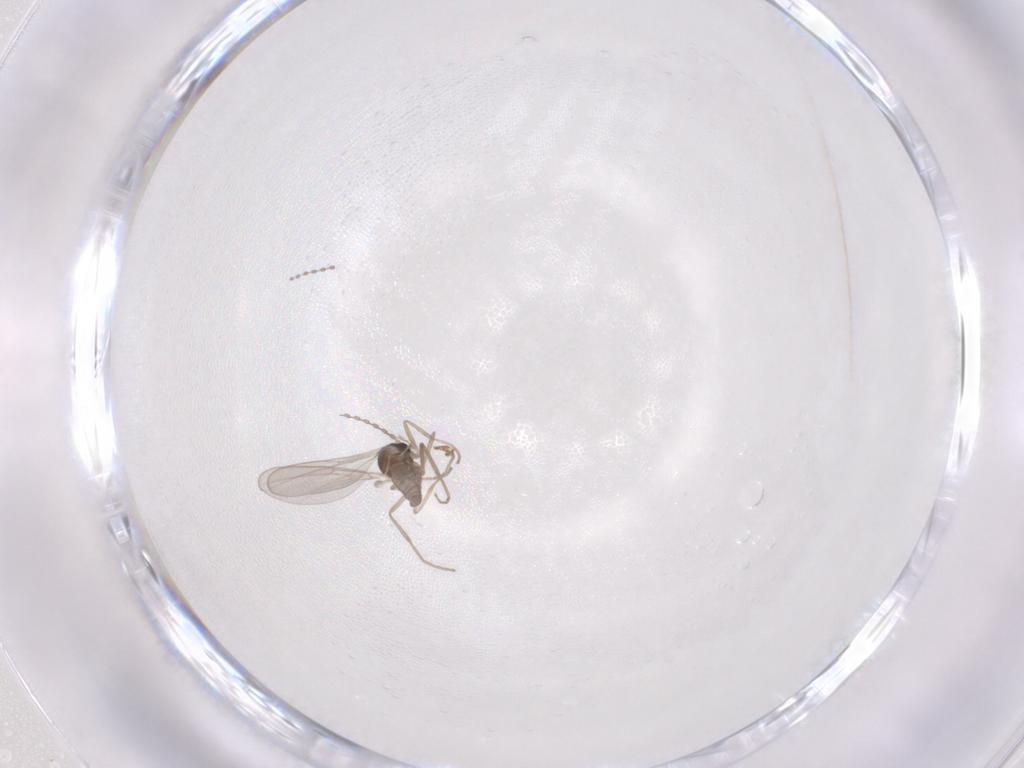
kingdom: Animalia
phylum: Arthropoda
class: Insecta
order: Diptera
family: Cecidomyiidae
